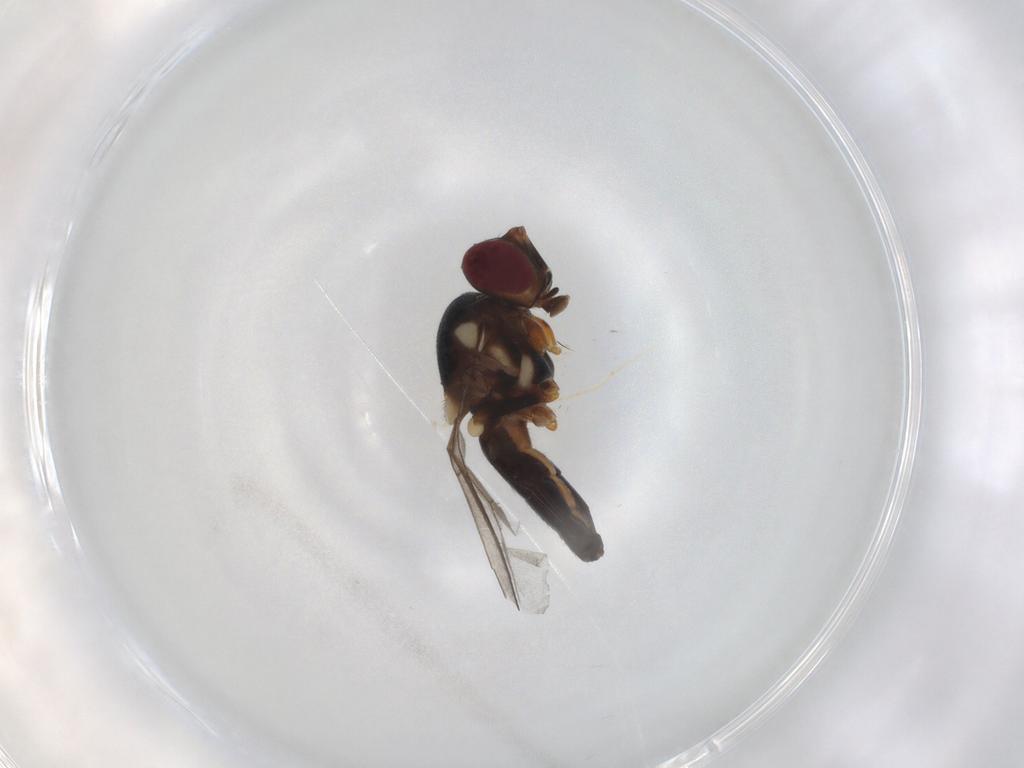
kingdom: Animalia
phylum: Arthropoda
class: Insecta
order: Diptera
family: Chloropidae
